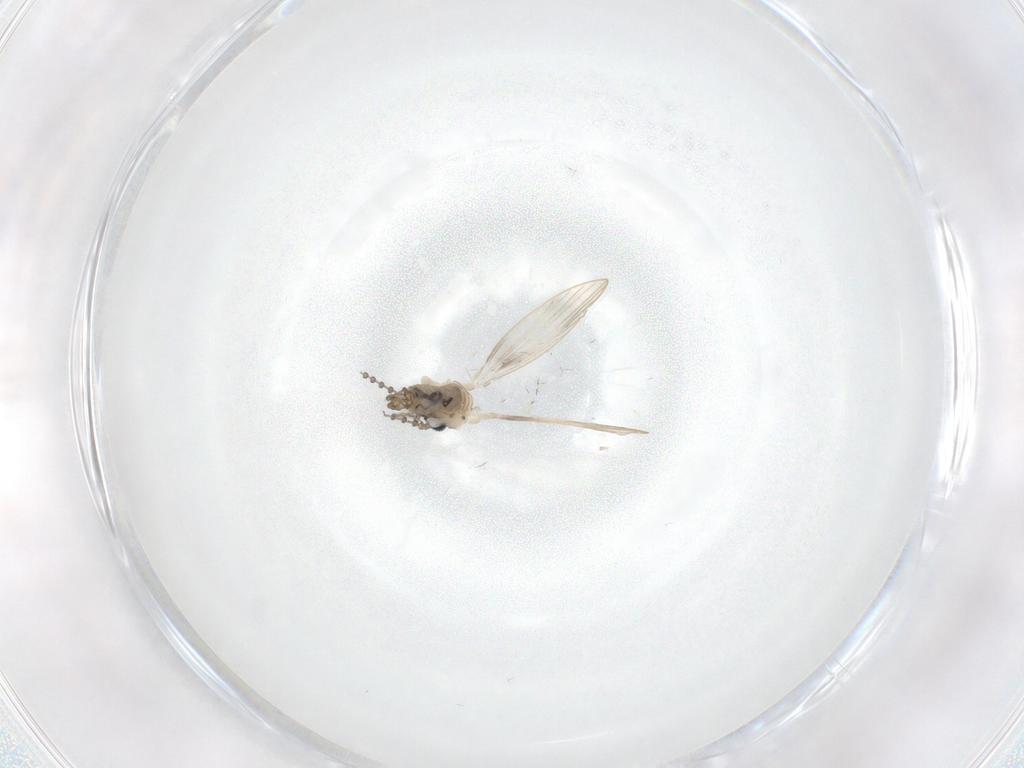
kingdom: Animalia
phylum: Arthropoda
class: Insecta
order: Diptera
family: Psychodidae
